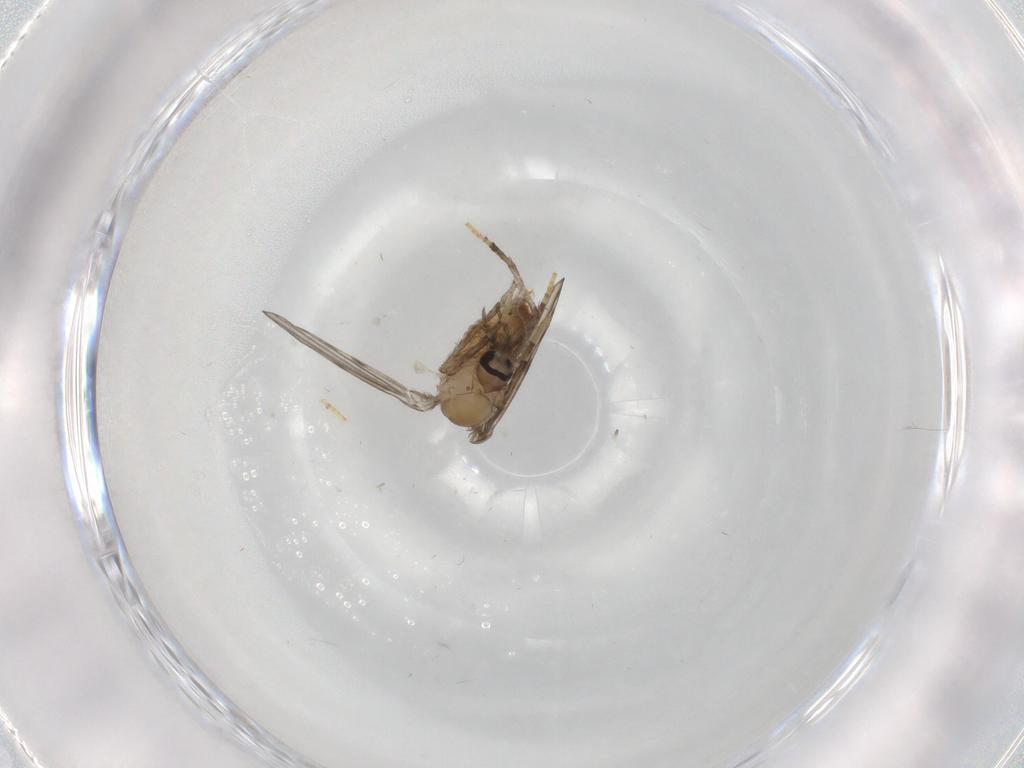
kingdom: Animalia
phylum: Arthropoda
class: Insecta
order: Diptera
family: Psychodidae
